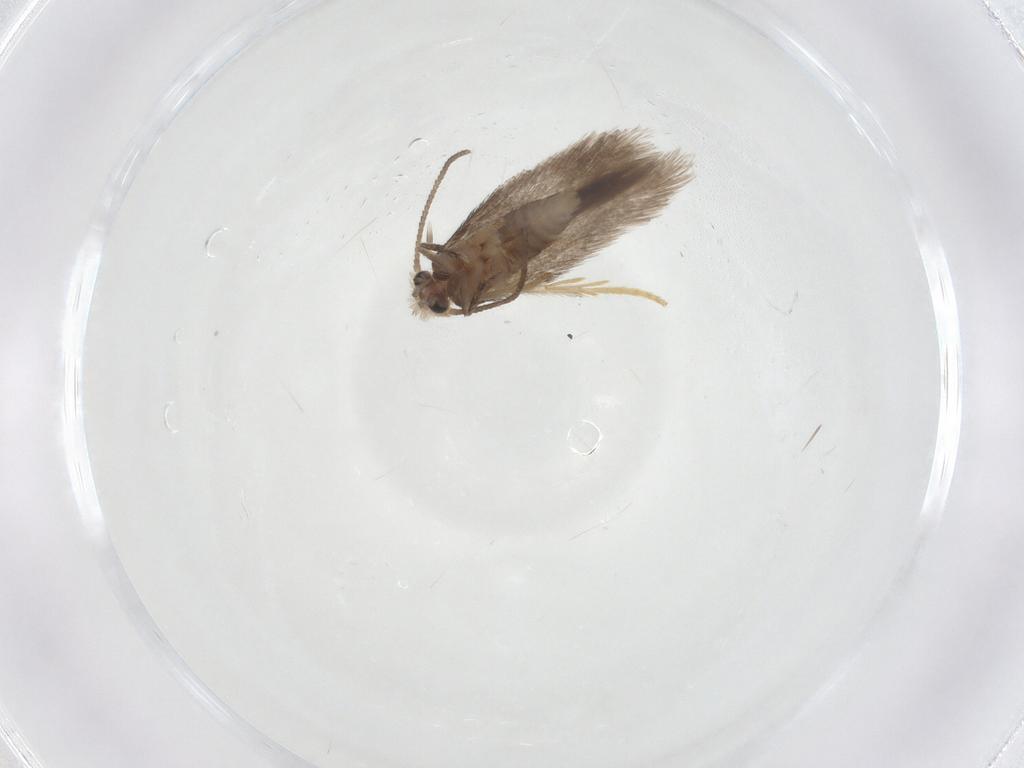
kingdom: Animalia
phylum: Arthropoda
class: Insecta
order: Lepidoptera
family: Nepticulidae
